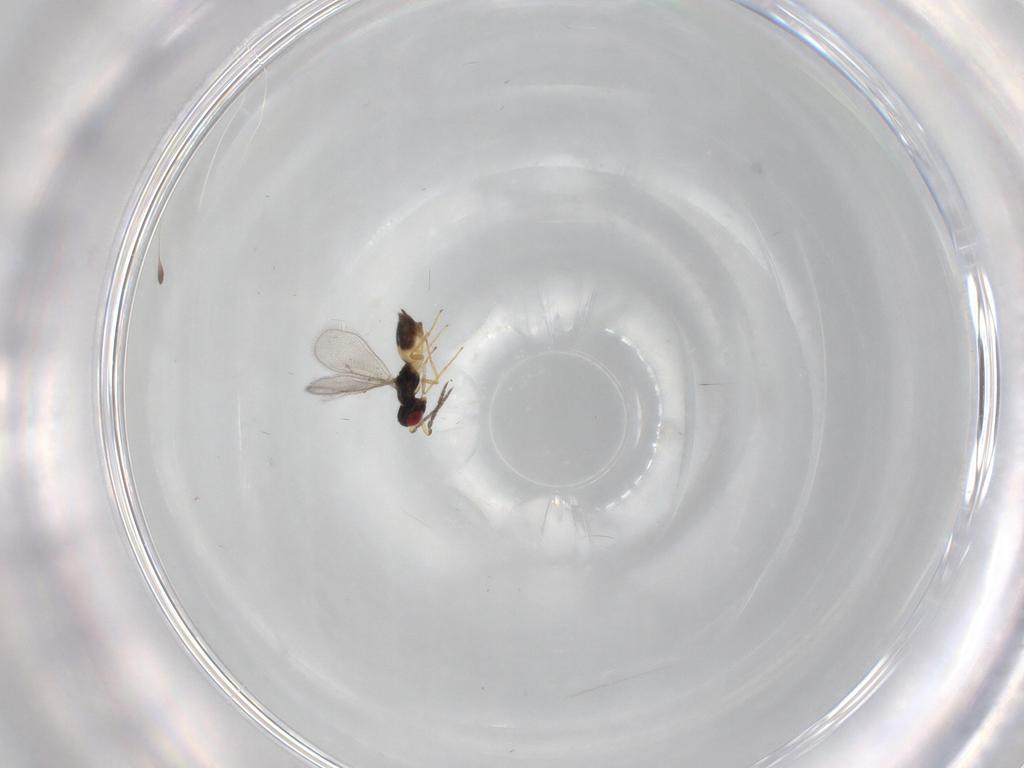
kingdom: Animalia
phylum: Arthropoda
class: Insecta
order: Hymenoptera
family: Eulophidae
